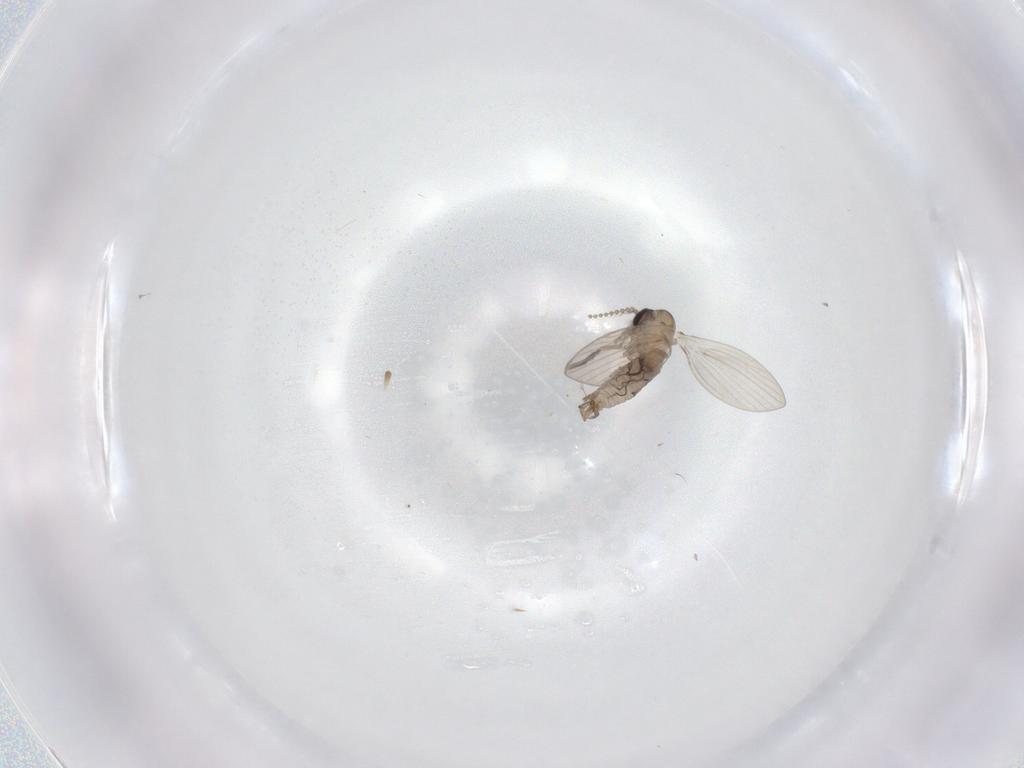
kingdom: Animalia
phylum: Arthropoda
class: Insecta
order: Diptera
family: Psychodidae
